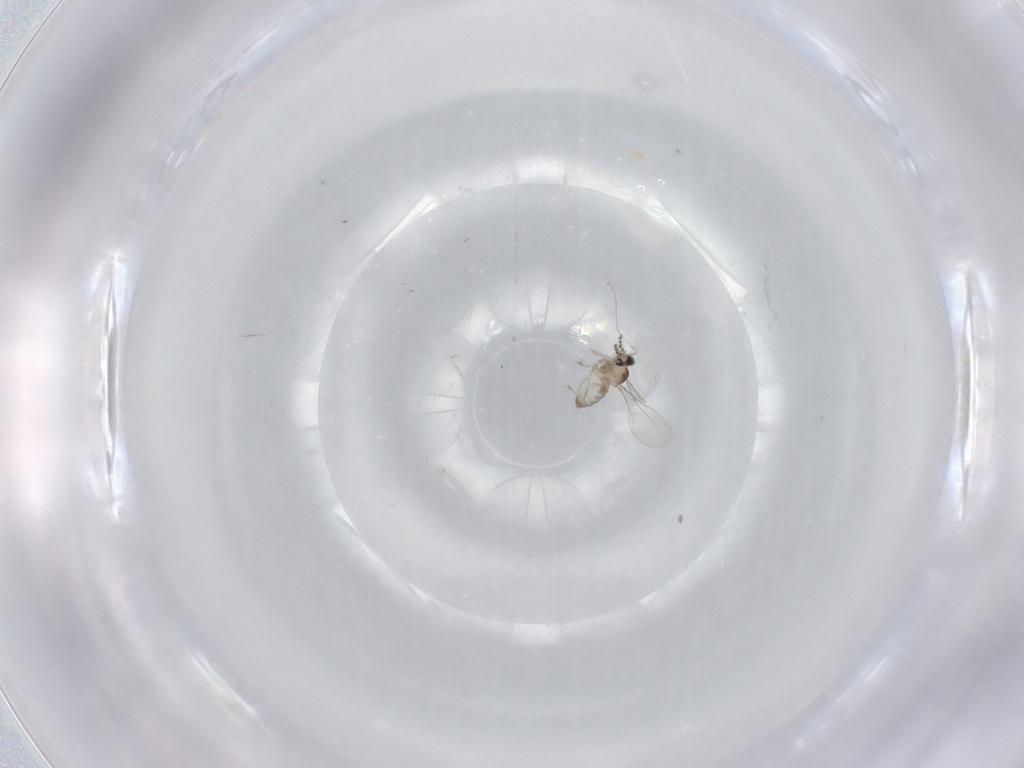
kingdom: Animalia
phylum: Arthropoda
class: Insecta
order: Diptera
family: Cecidomyiidae
